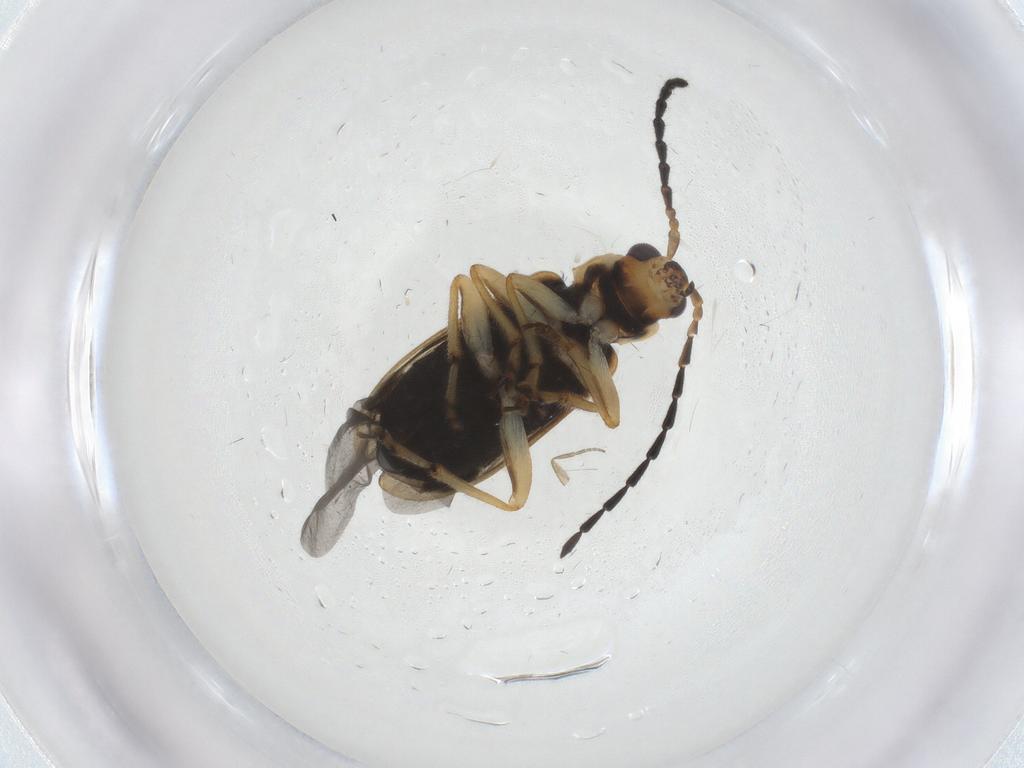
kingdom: Animalia
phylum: Arthropoda
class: Insecta
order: Coleoptera
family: Chrysomelidae
